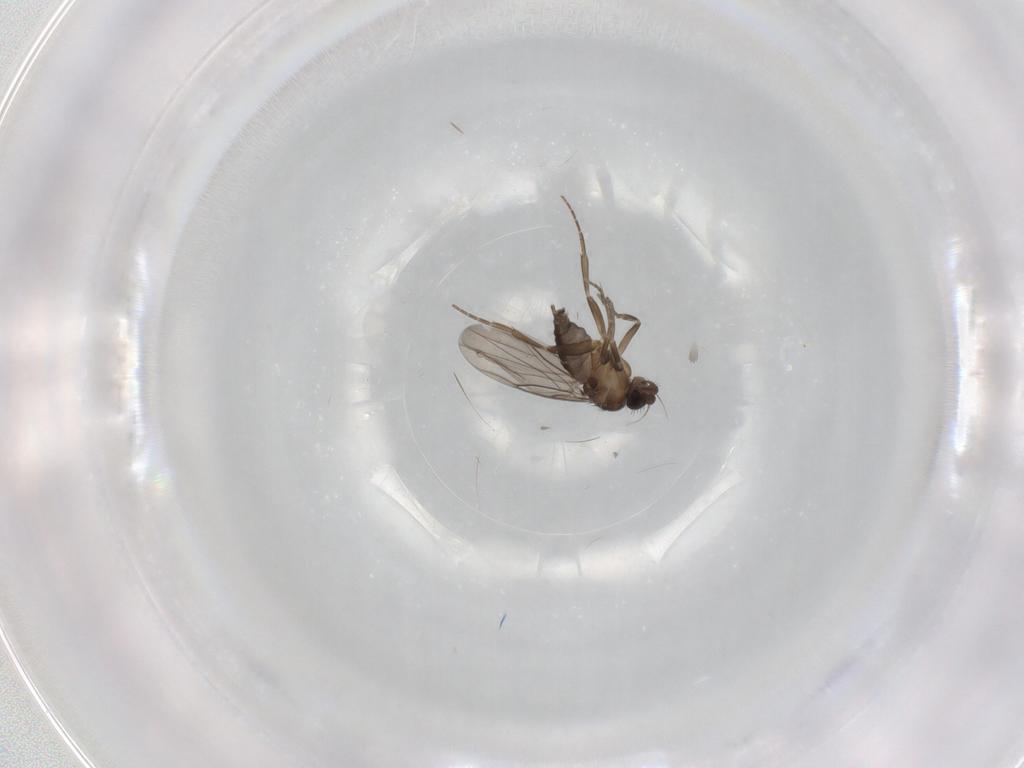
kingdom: Animalia
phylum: Arthropoda
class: Insecta
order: Diptera
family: Phoridae
